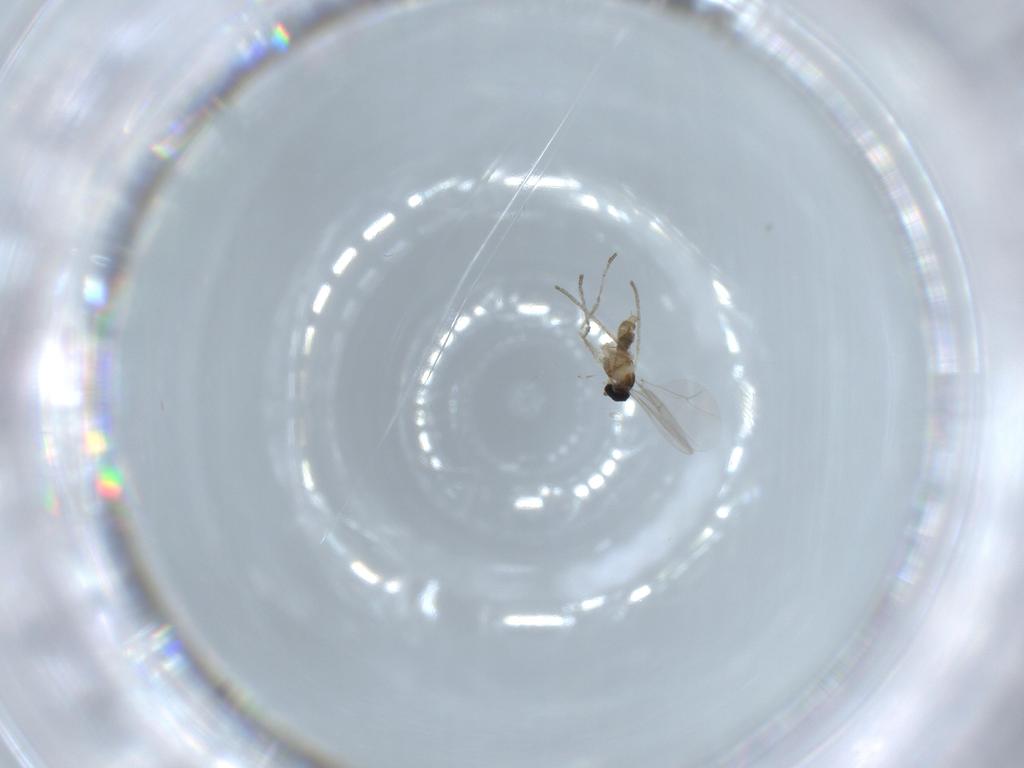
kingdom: Animalia
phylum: Arthropoda
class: Insecta
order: Diptera
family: Cecidomyiidae
